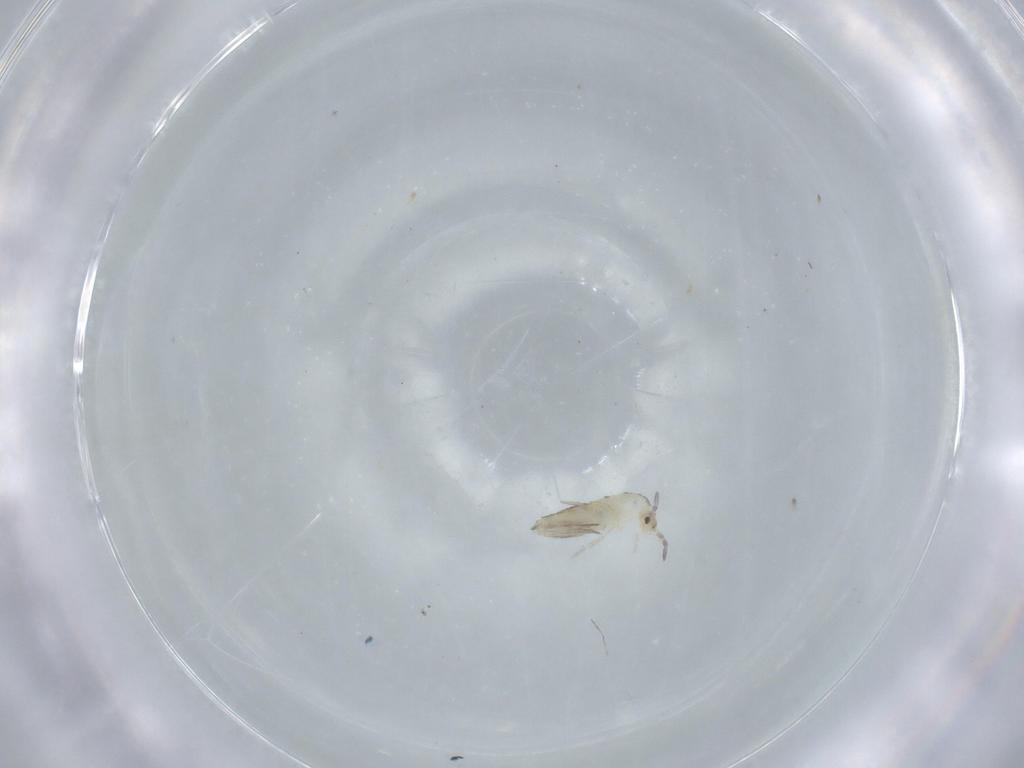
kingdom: Animalia
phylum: Arthropoda
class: Collembola
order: Entomobryomorpha
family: Entomobryidae
